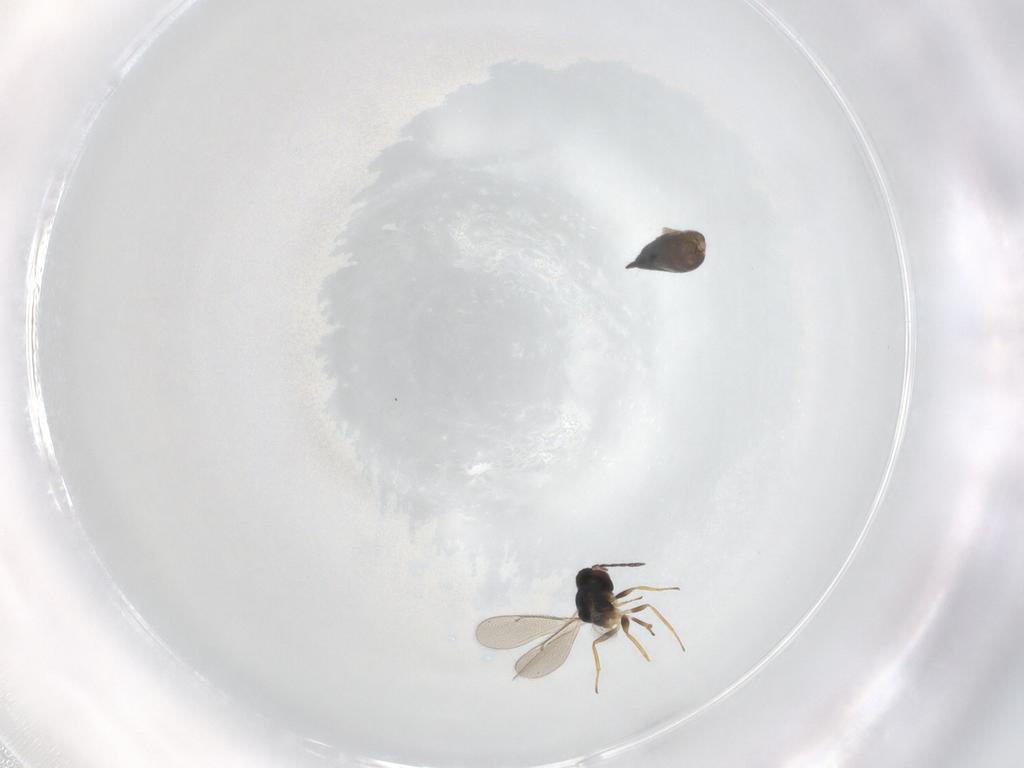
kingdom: Animalia
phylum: Arthropoda
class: Insecta
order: Hymenoptera
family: Eulophidae
